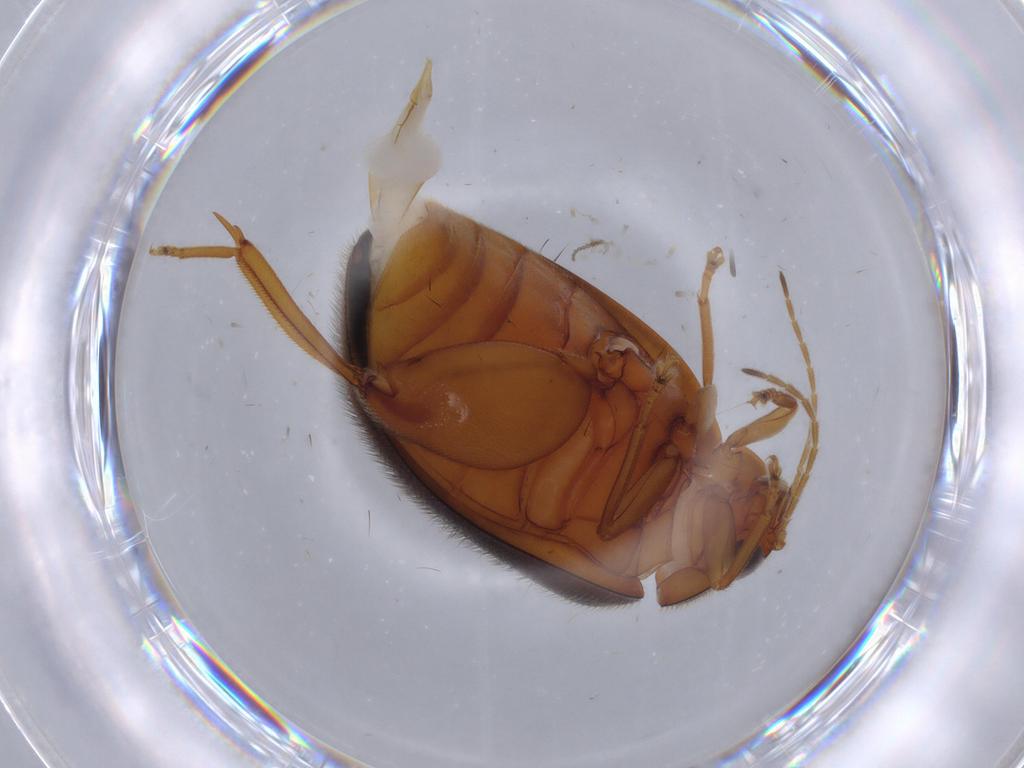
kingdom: Animalia
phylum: Arthropoda
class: Insecta
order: Coleoptera
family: Scirtidae
